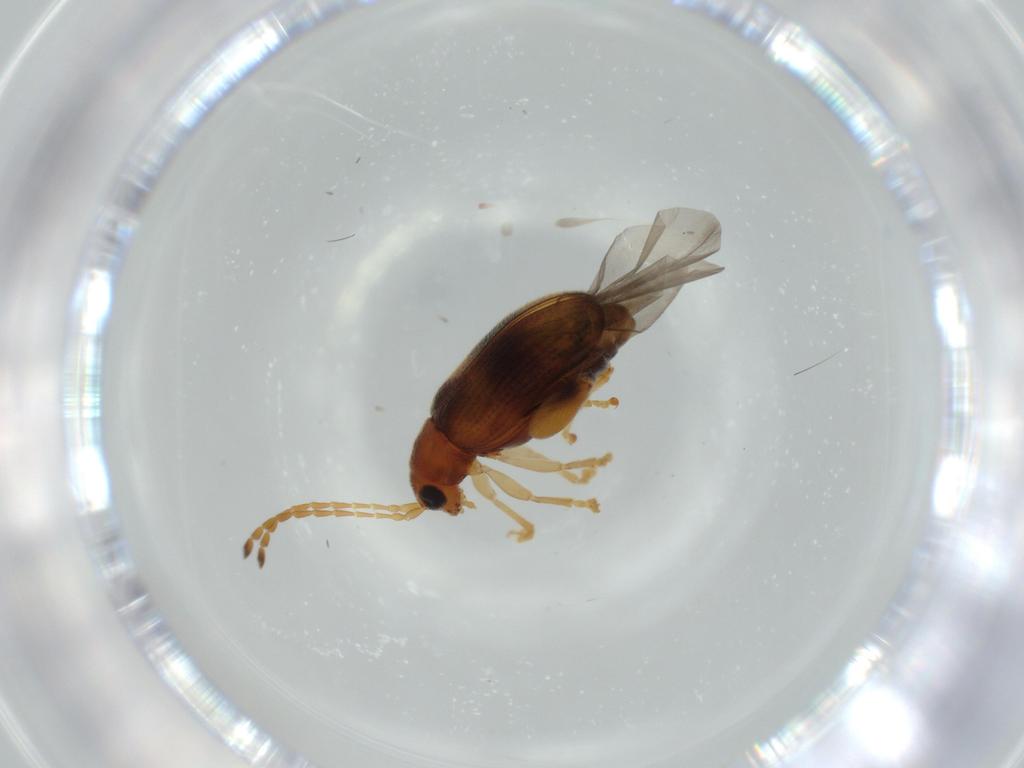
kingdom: Animalia
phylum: Arthropoda
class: Insecta
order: Coleoptera
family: Chrysomelidae
